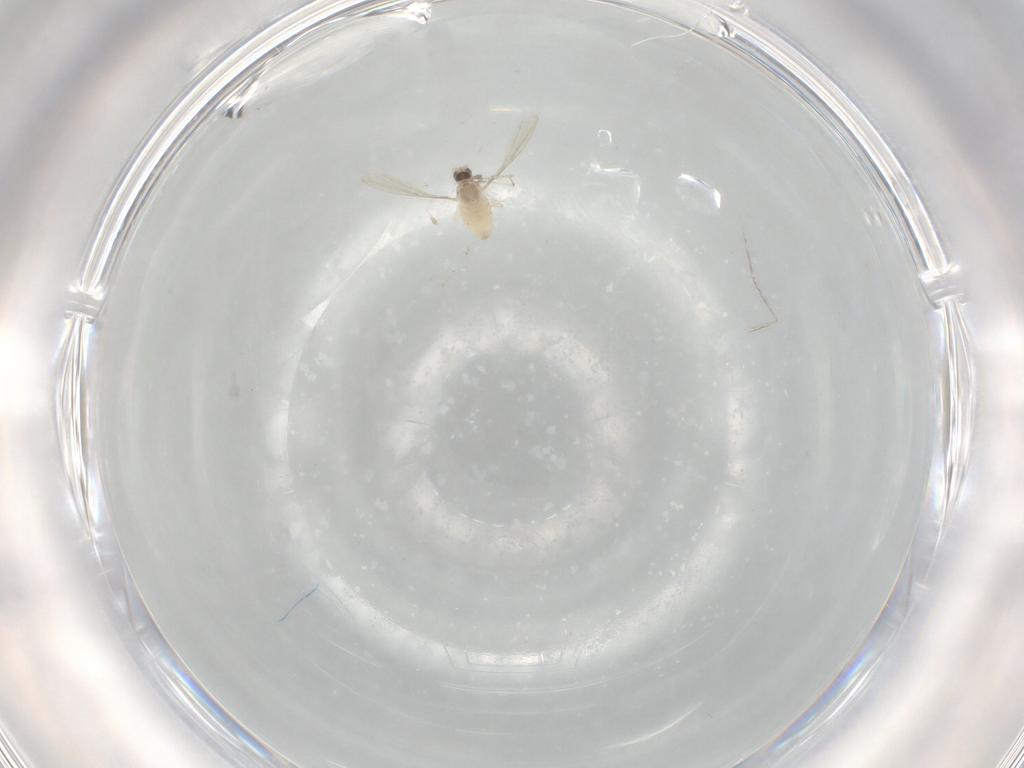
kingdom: Animalia
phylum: Arthropoda
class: Insecta
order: Diptera
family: Cecidomyiidae
